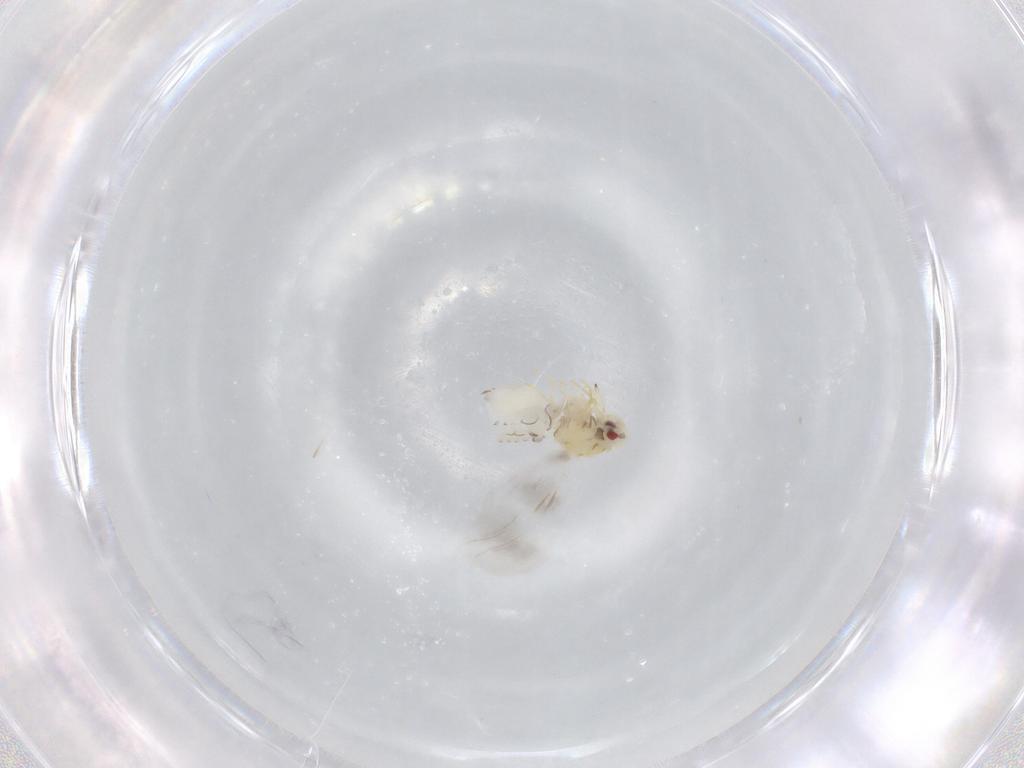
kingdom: Animalia
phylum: Arthropoda
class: Insecta
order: Hemiptera
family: Aleyrodidae
